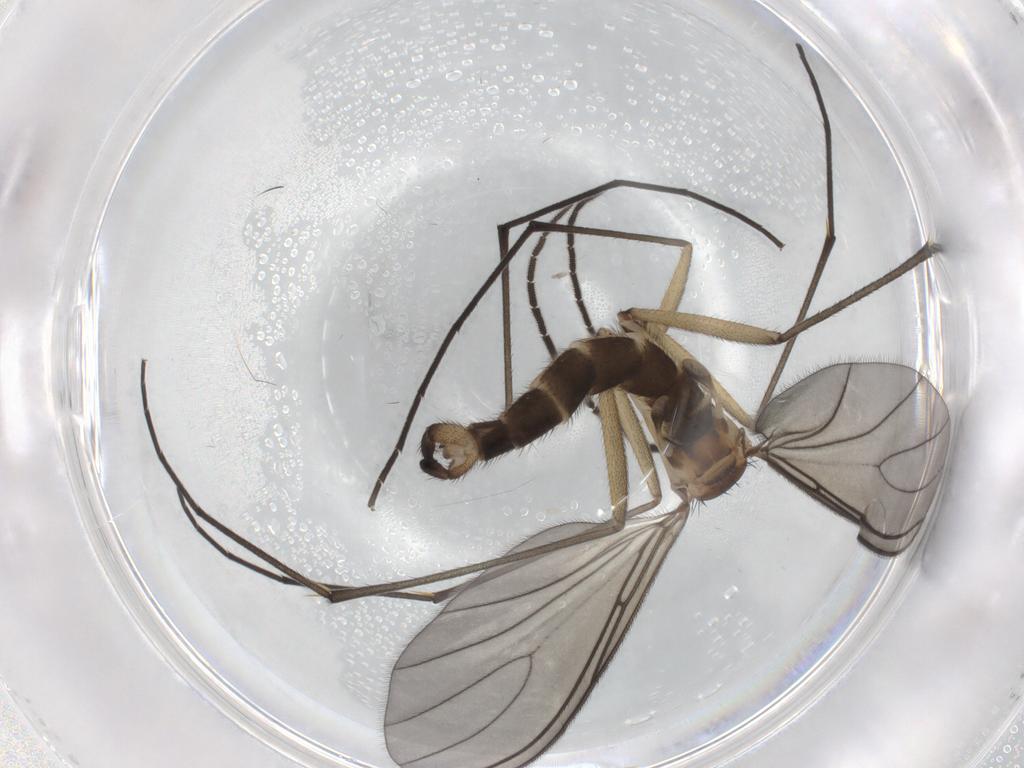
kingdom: Animalia
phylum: Arthropoda
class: Insecta
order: Diptera
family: Sciaridae
